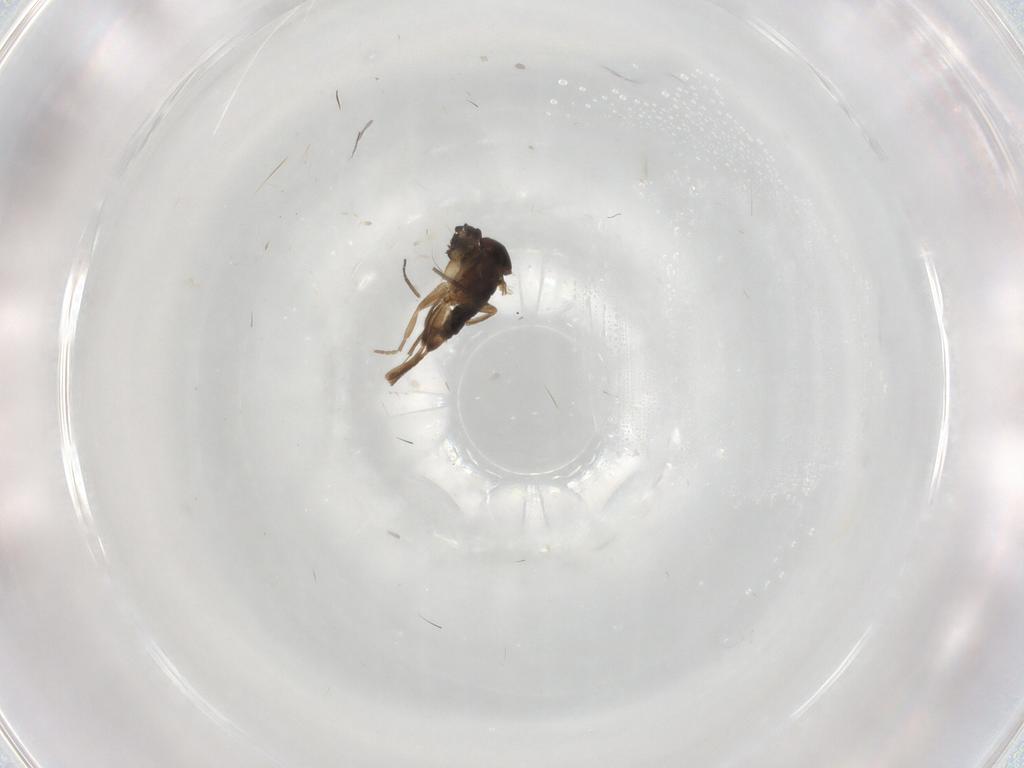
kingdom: Animalia
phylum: Arthropoda
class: Insecta
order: Diptera
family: Phoridae
